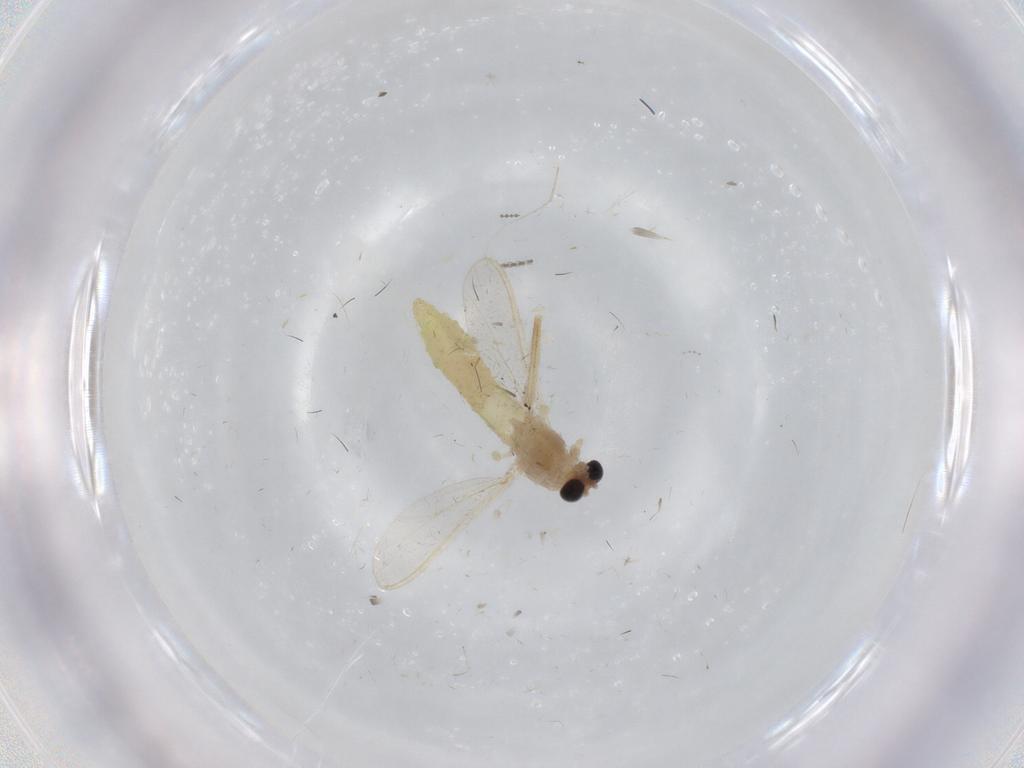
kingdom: Animalia
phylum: Arthropoda
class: Insecta
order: Diptera
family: Chironomidae
